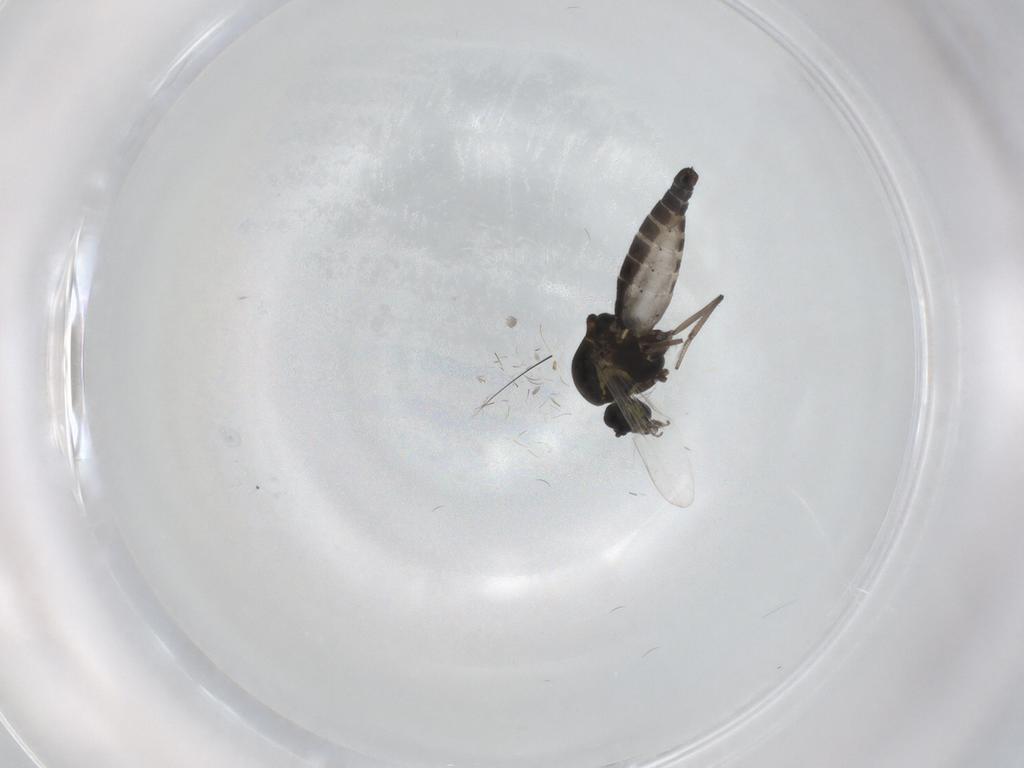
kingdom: Animalia
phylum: Arthropoda
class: Insecta
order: Diptera
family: Ceratopogonidae
